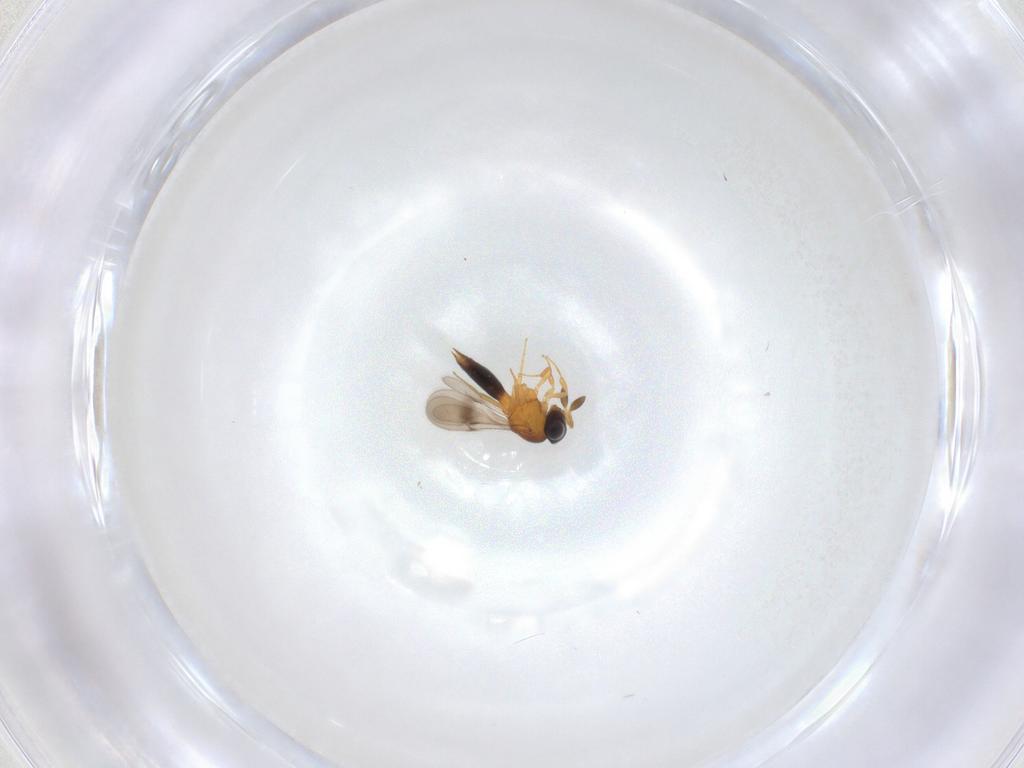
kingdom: Animalia
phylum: Arthropoda
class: Insecta
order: Hymenoptera
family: Scelionidae
